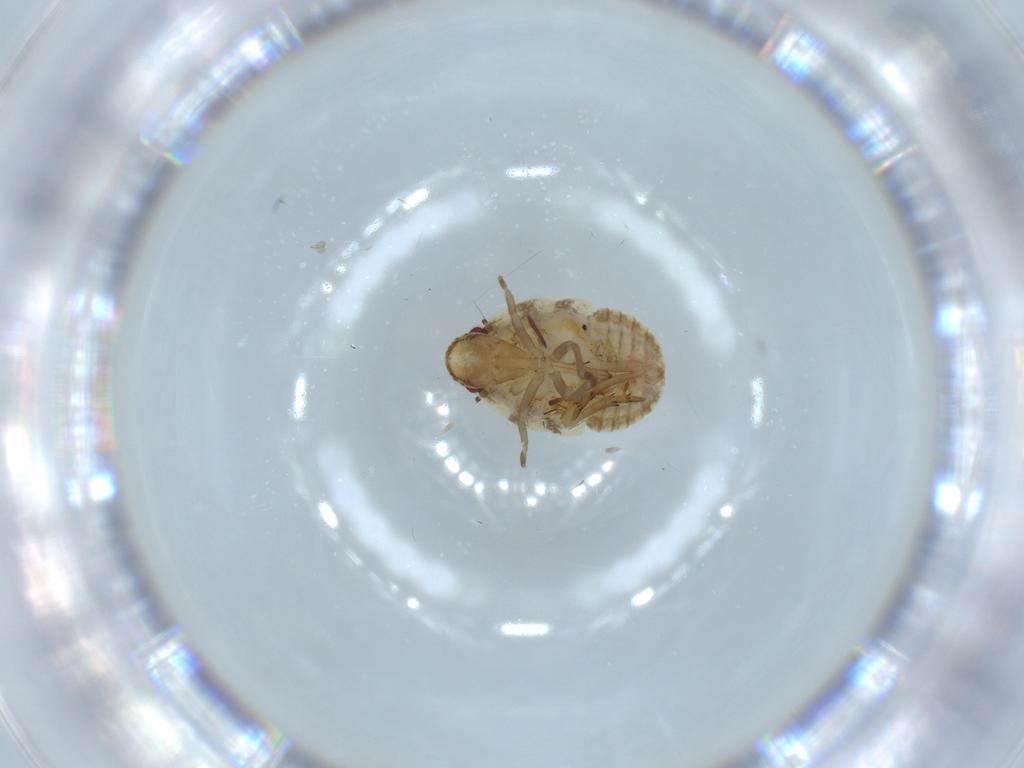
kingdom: Animalia
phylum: Arthropoda
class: Insecta
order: Hemiptera
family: Flatidae
